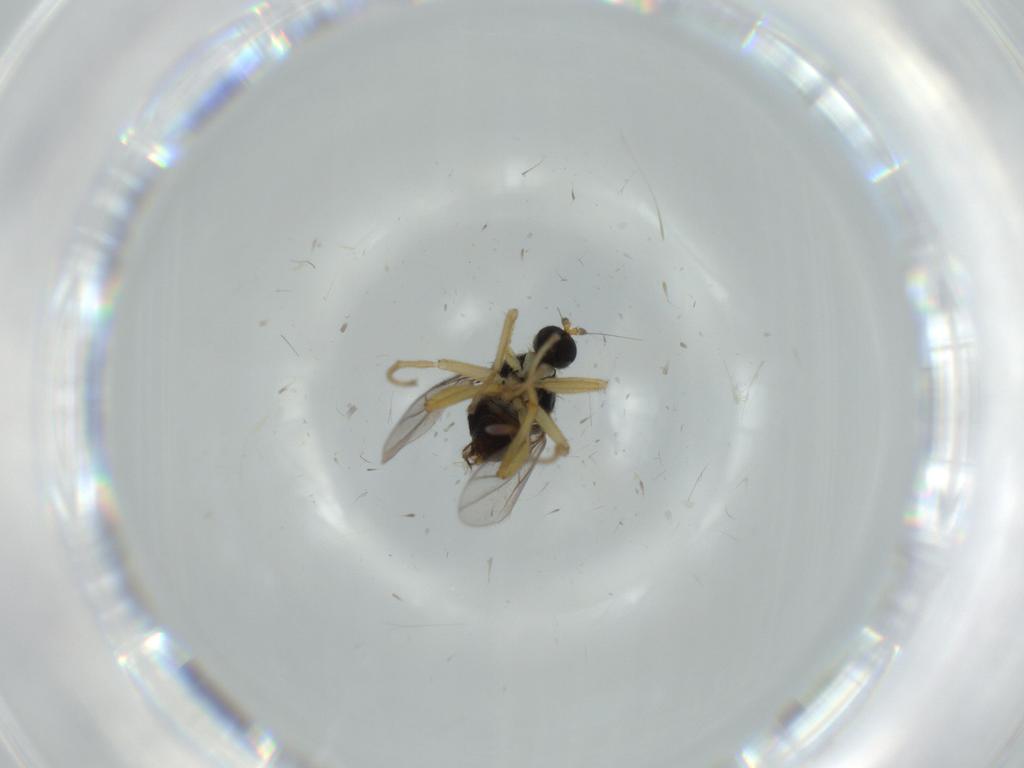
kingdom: Animalia
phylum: Arthropoda
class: Insecta
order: Diptera
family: Hybotidae
